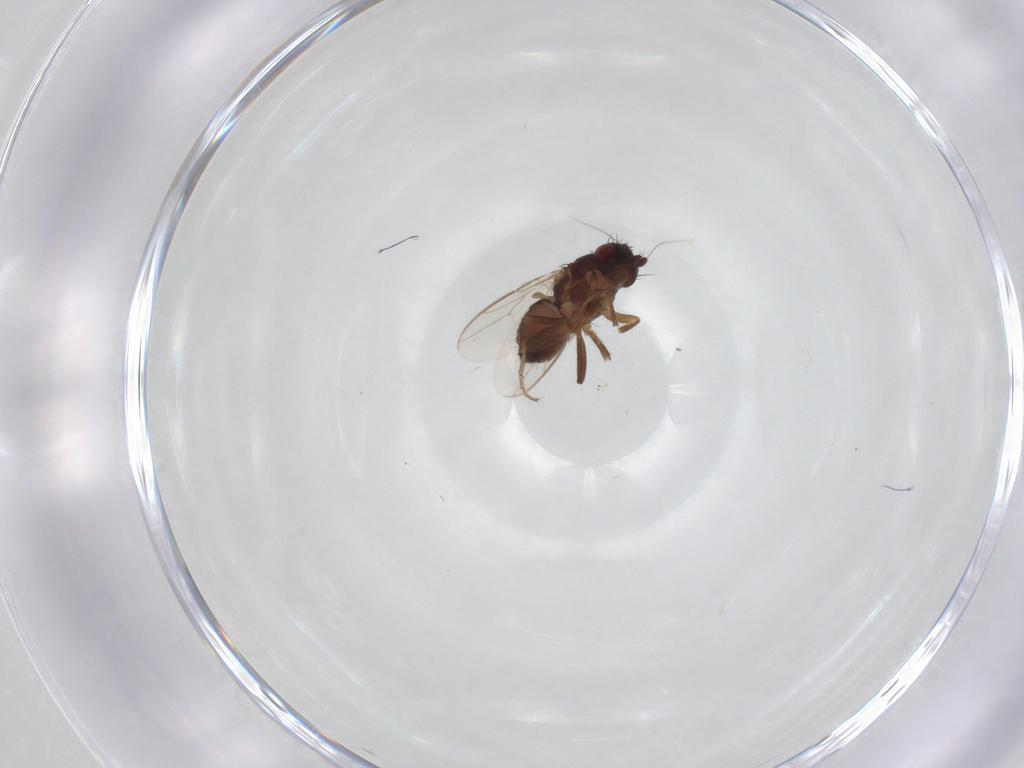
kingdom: Animalia
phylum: Arthropoda
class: Insecta
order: Diptera
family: Sphaeroceridae
